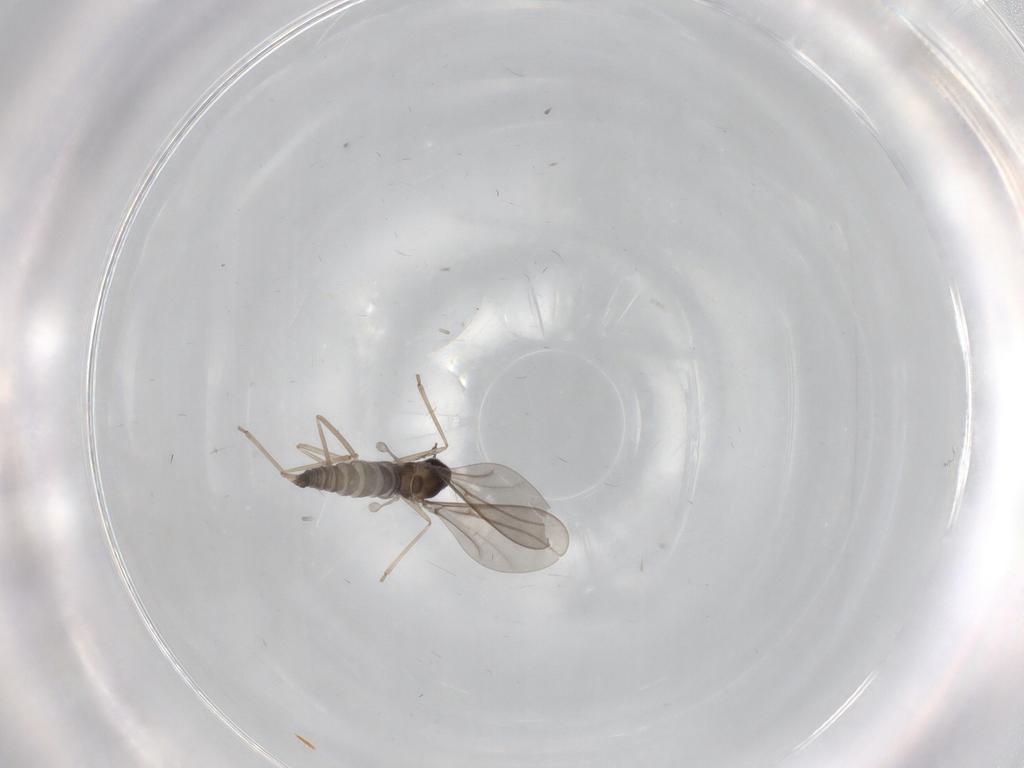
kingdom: Animalia
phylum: Arthropoda
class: Insecta
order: Diptera
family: Cecidomyiidae
